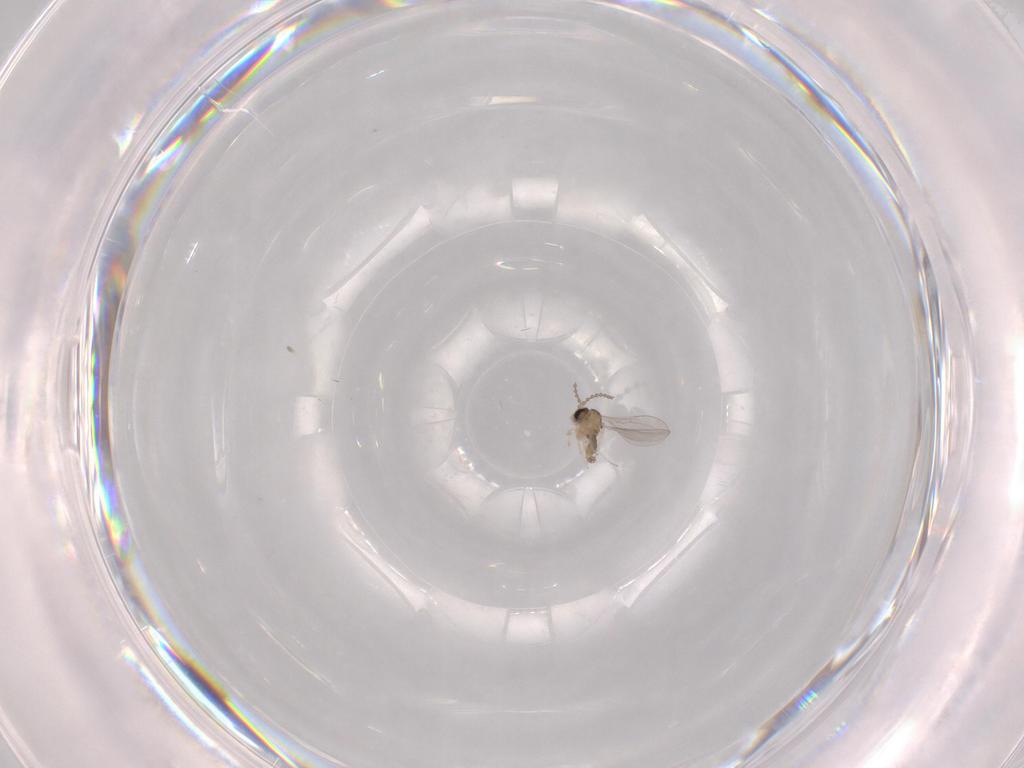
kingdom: Animalia
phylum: Arthropoda
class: Insecta
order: Diptera
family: Cecidomyiidae
